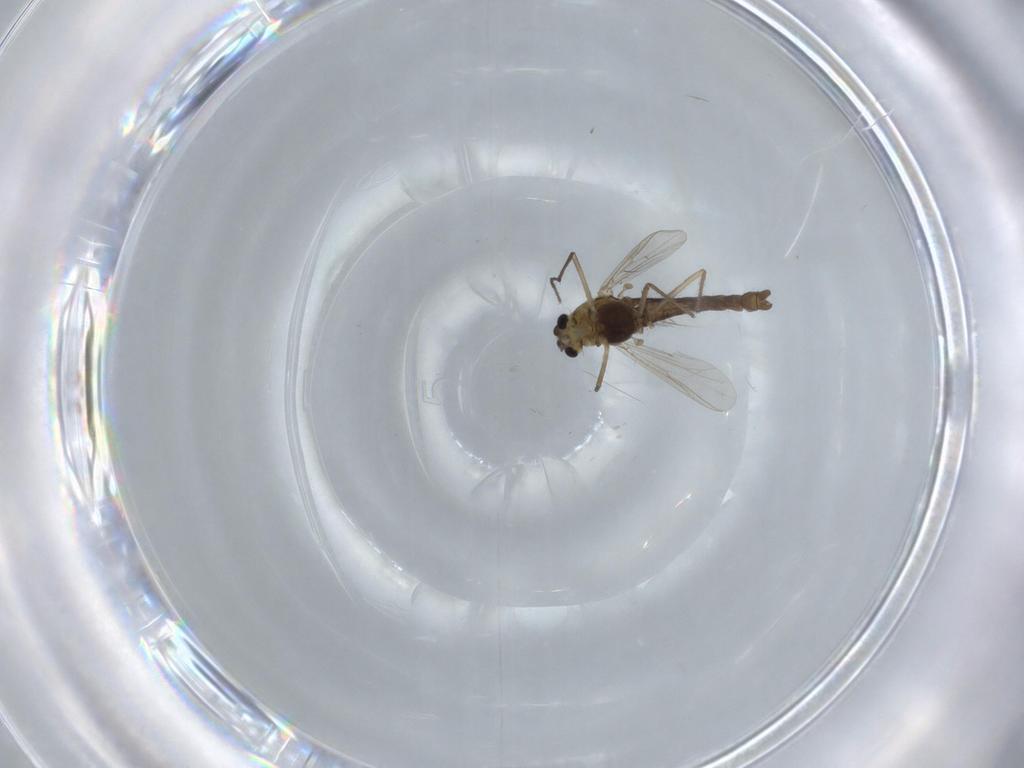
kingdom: Animalia
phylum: Arthropoda
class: Insecta
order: Diptera
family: Chironomidae
